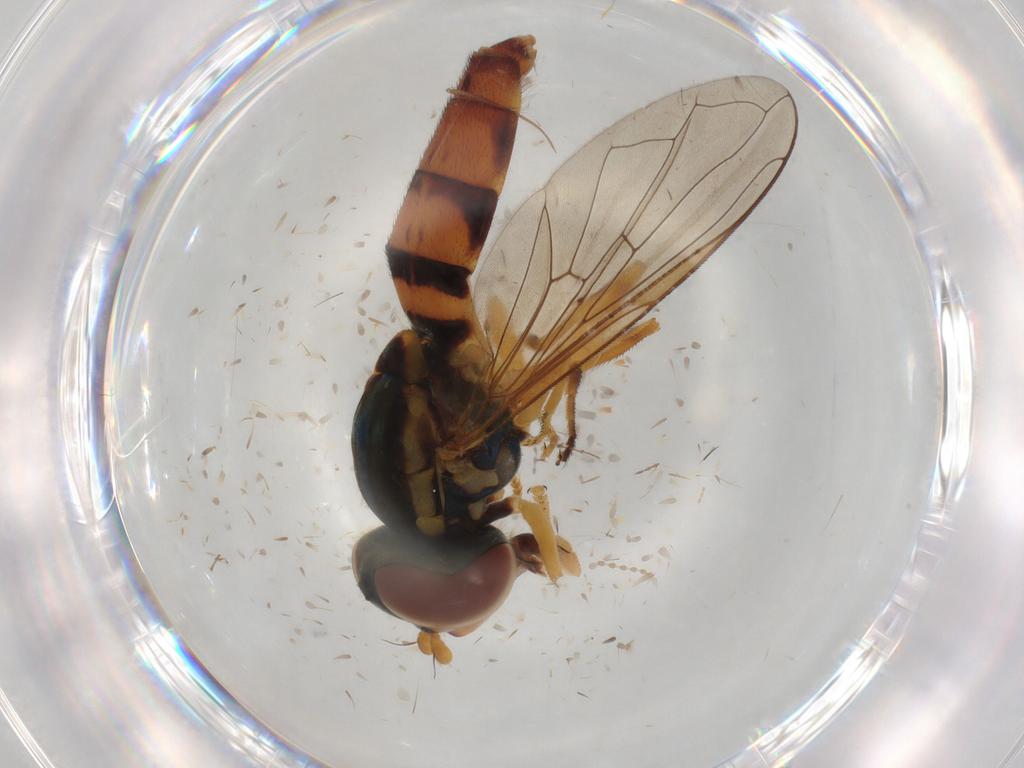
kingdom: Animalia
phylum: Arthropoda
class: Insecta
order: Diptera
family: Syrphidae
